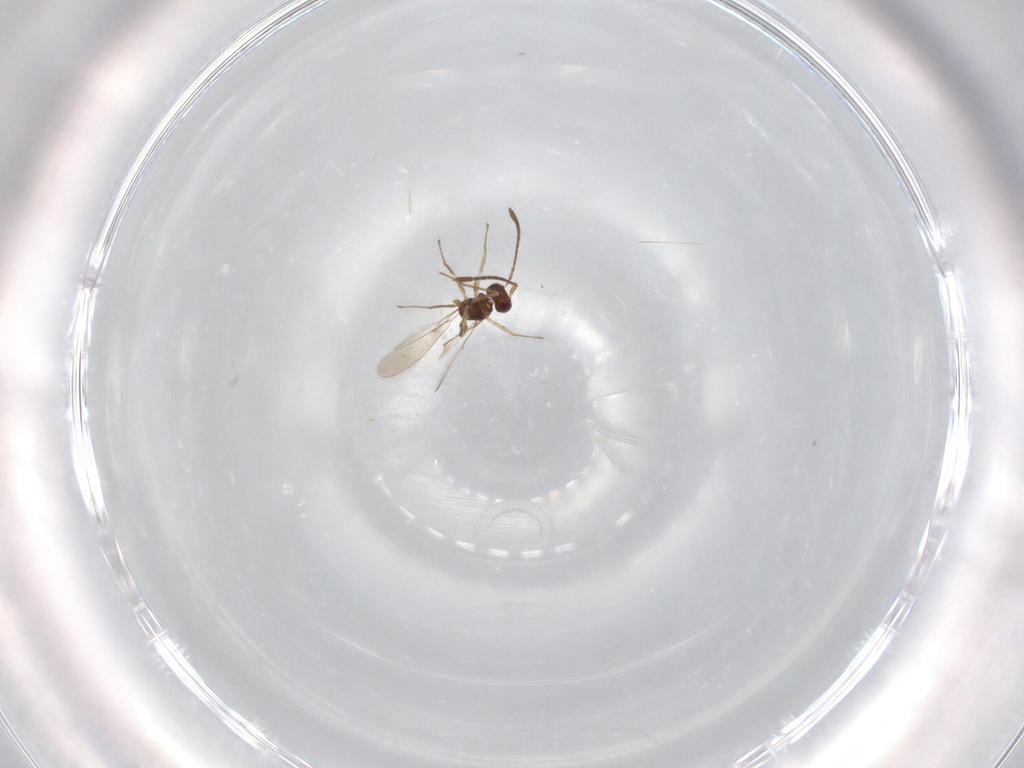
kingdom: Animalia
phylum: Arthropoda
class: Insecta
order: Hymenoptera
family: Mymaridae
